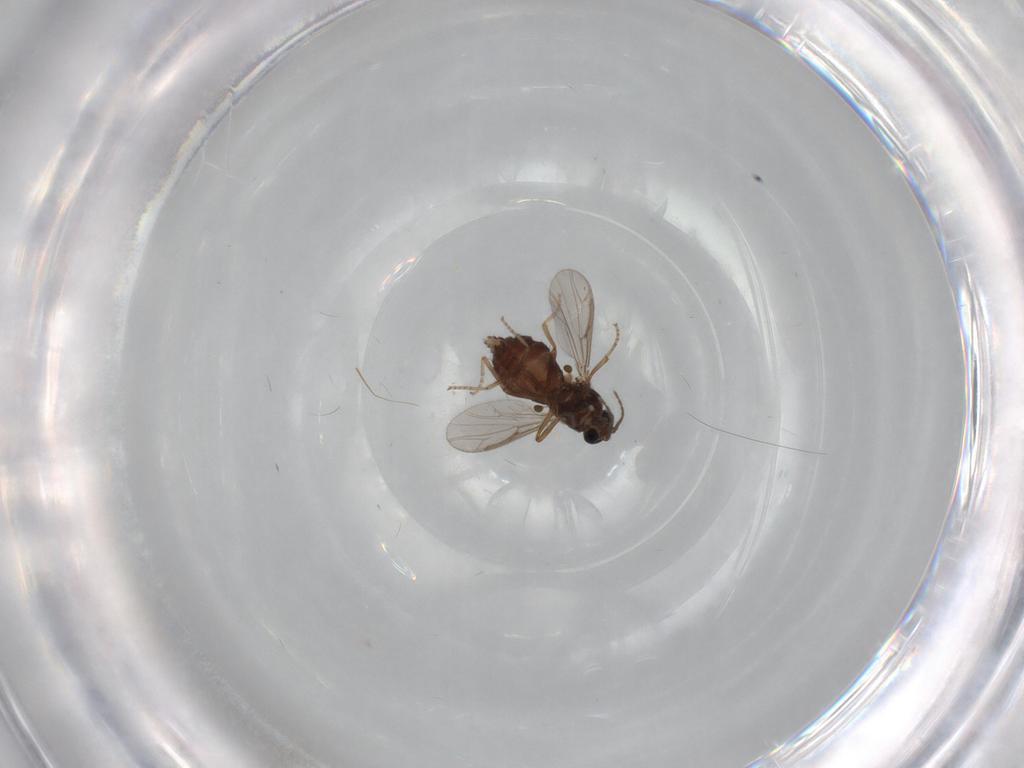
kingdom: Animalia
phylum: Arthropoda
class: Insecta
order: Diptera
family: Ceratopogonidae
